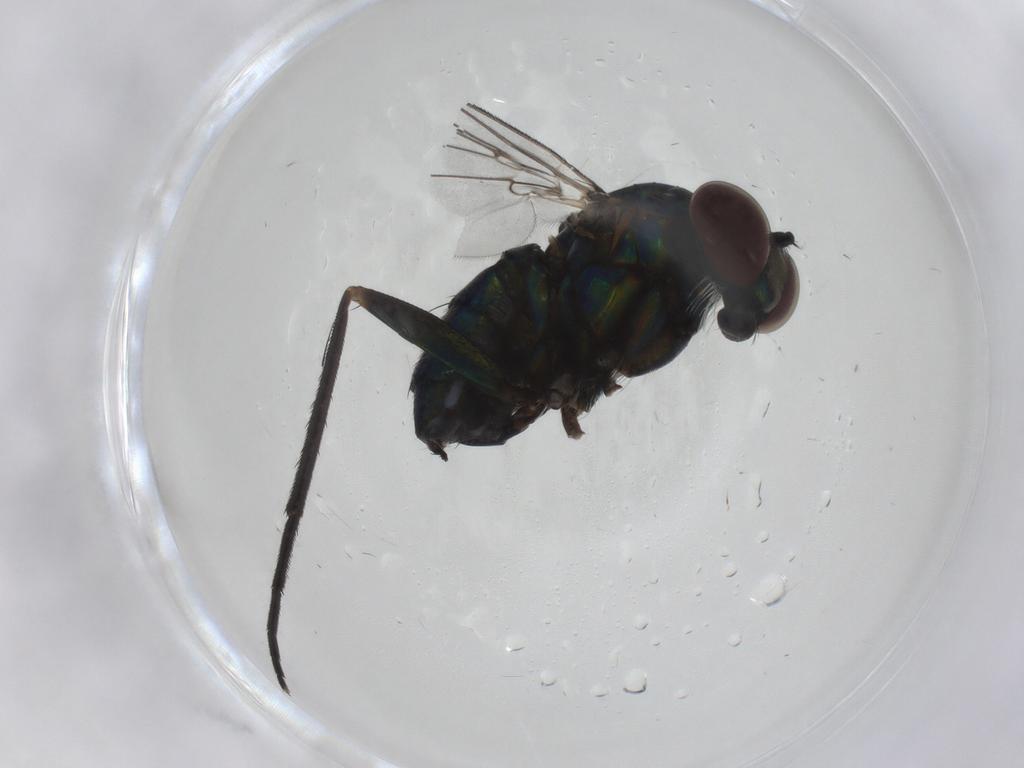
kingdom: Animalia
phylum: Arthropoda
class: Insecta
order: Diptera
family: Dolichopodidae
